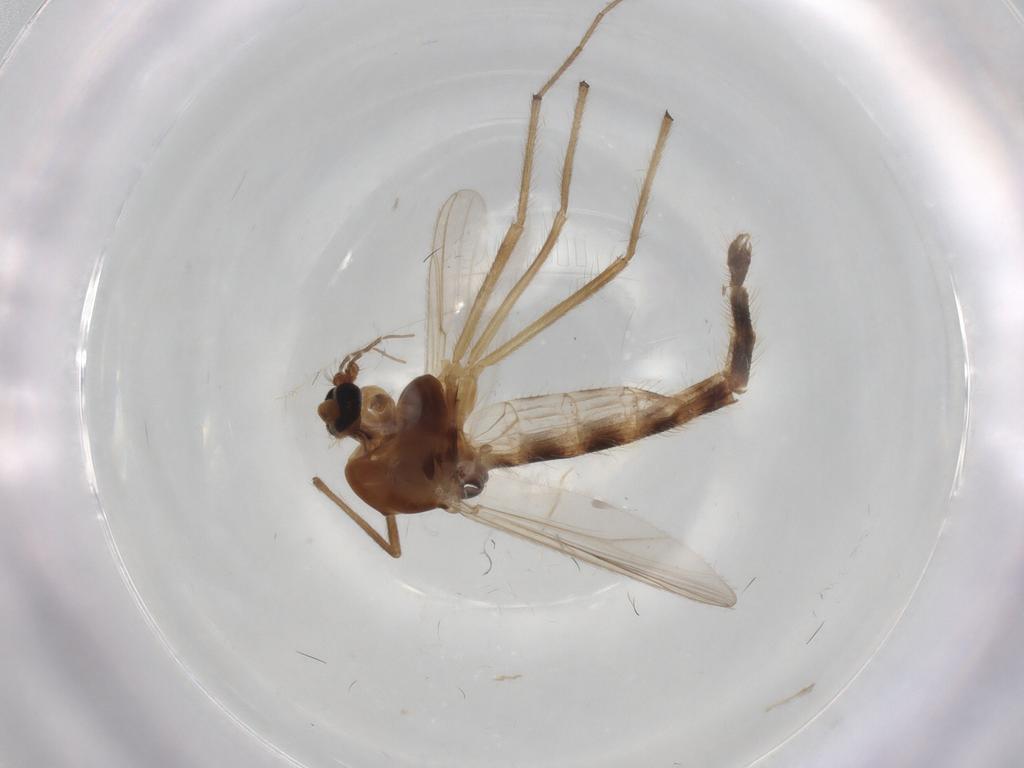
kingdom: Animalia
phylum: Arthropoda
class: Insecta
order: Diptera
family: Chironomidae
